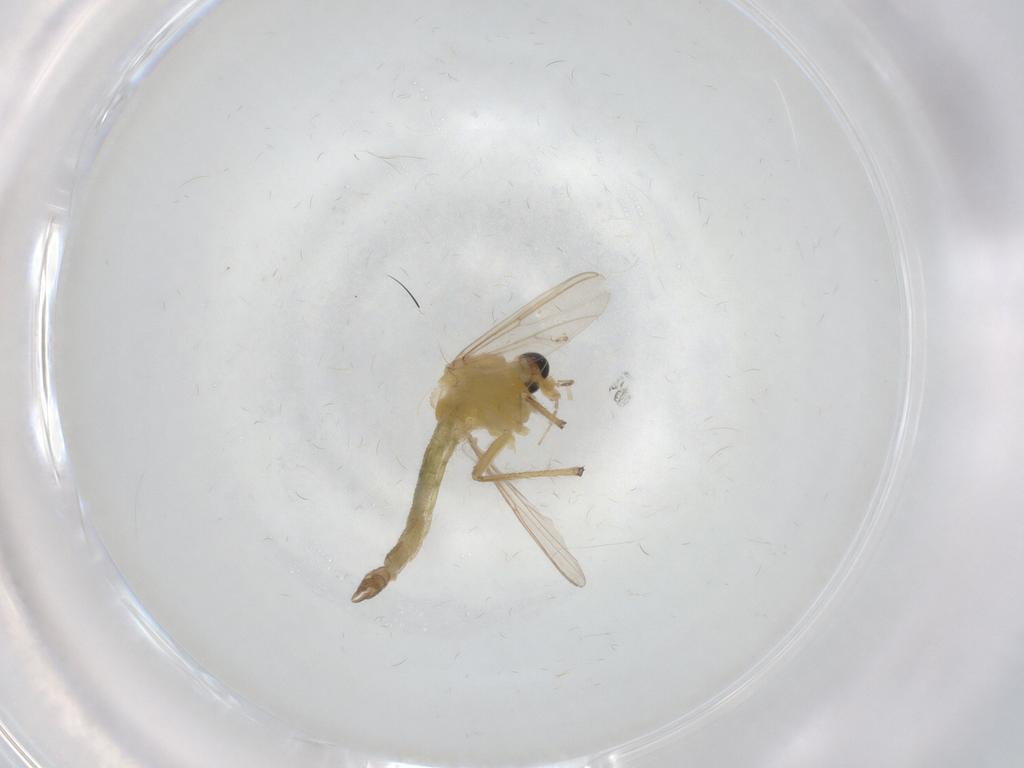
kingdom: Animalia
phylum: Arthropoda
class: Insecta
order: Diptera
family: Chironomidae
